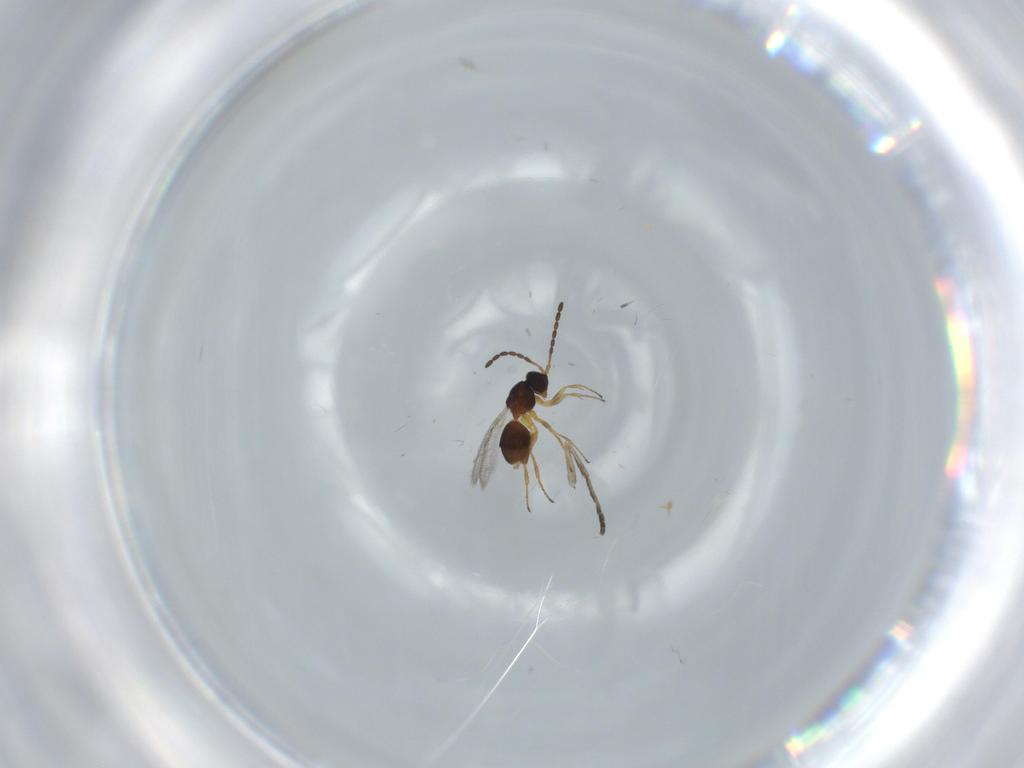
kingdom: Animalia
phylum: Arthropoda
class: Insecta
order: Hymenoptera
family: Figitidae
